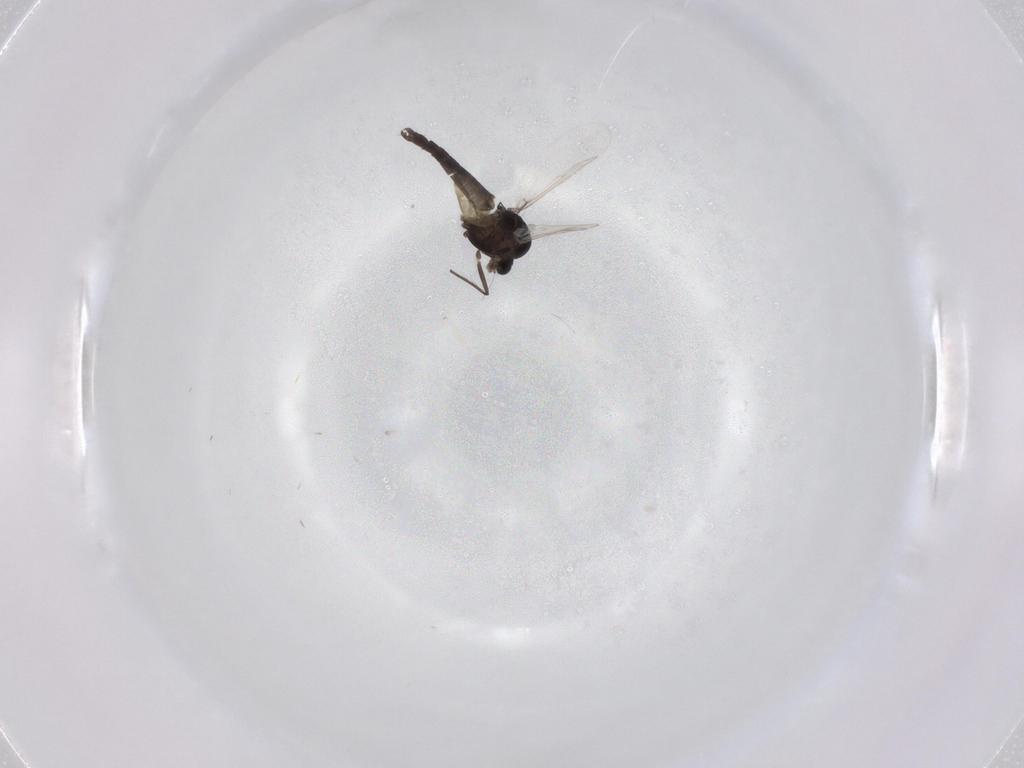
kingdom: Animalia
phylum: Arthropoda
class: Insecta
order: Diptera
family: Chironomidae
